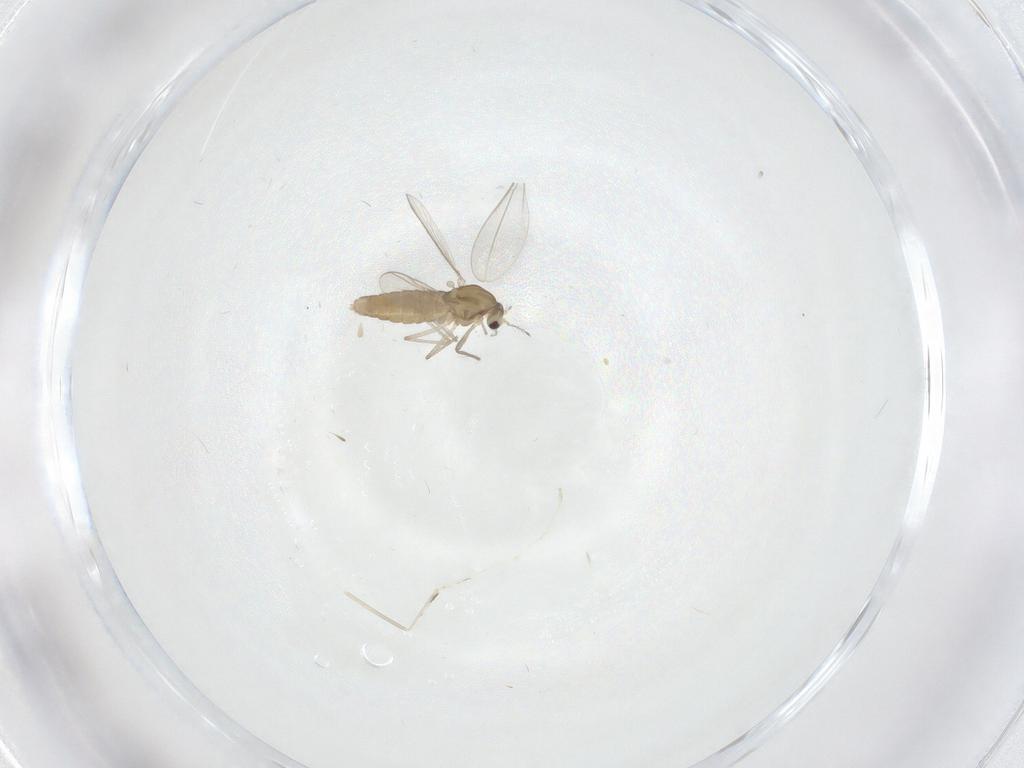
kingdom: Animalia
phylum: Arthropoda
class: Insecta
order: Diptera
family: Chironomidae
